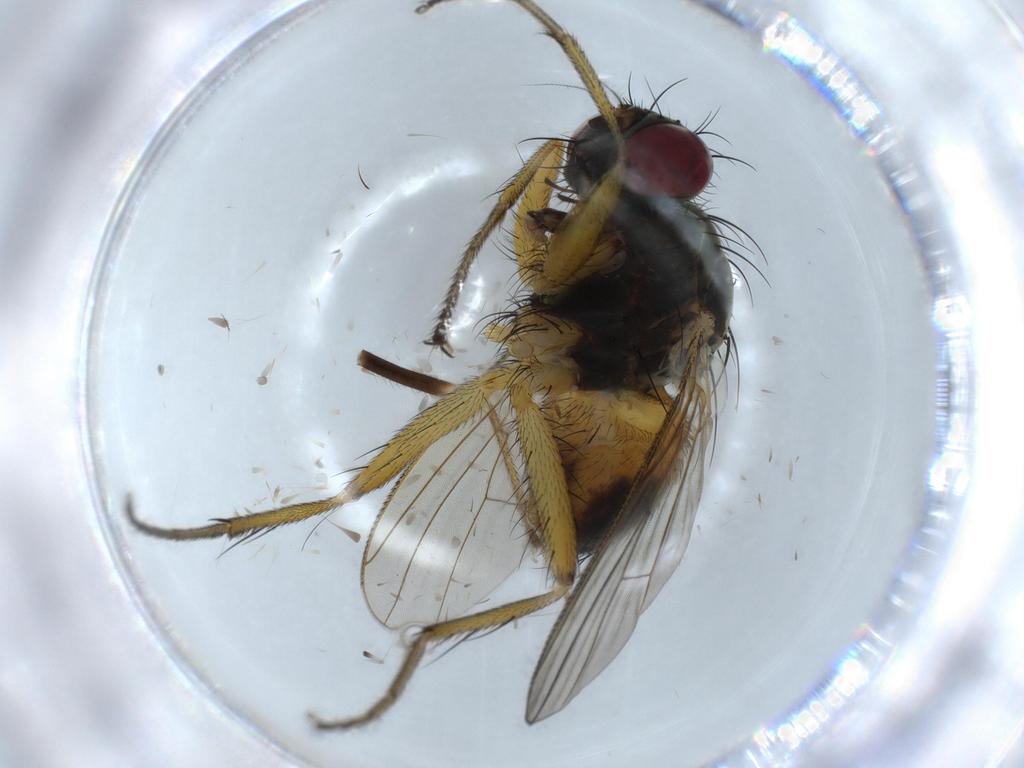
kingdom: Animalia
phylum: Arthropoda
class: Insecta
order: Diptera
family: Muscidae
